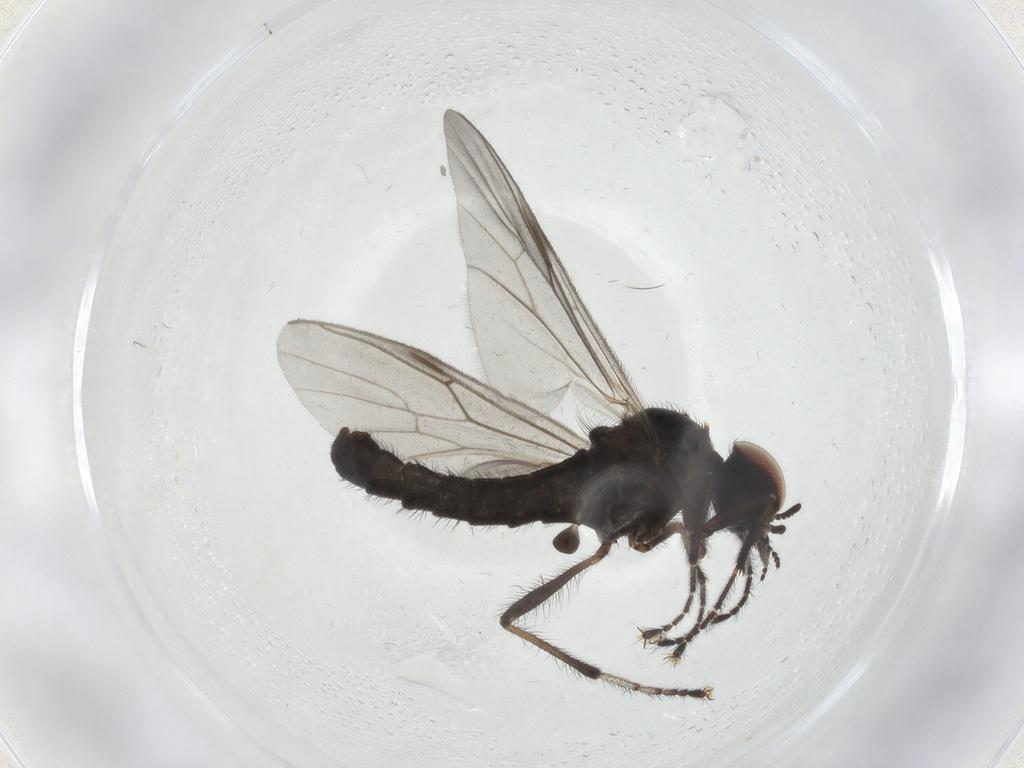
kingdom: Animalia
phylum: Arthropoda
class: Insecta
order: Diptera
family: Bibionidae
